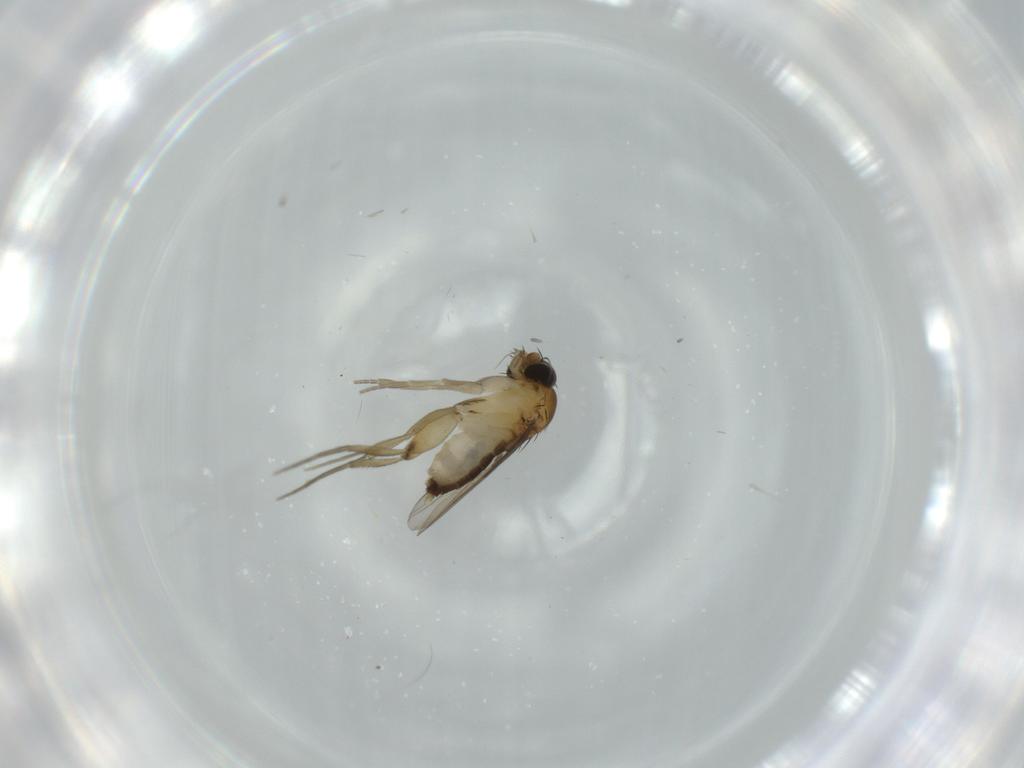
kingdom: Animalia
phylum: Arthropoda
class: Insecta
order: Diptera
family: Phoridae
